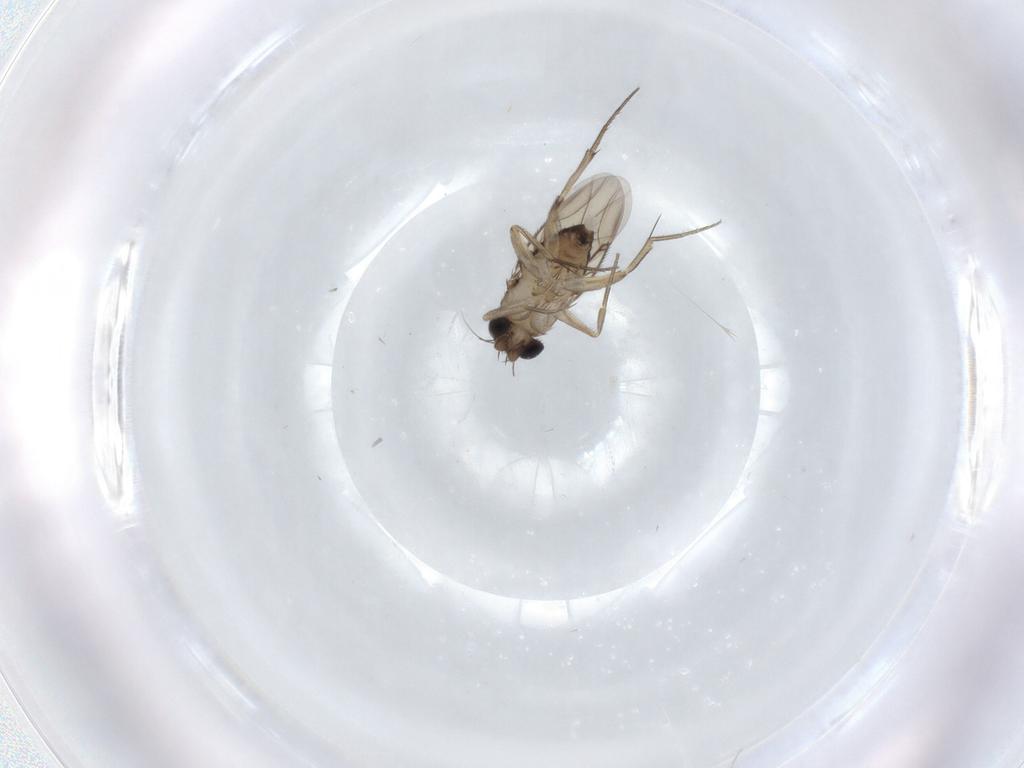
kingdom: Animalia
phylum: Arthropoda
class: Insecta
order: Diptera
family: Phoridae
